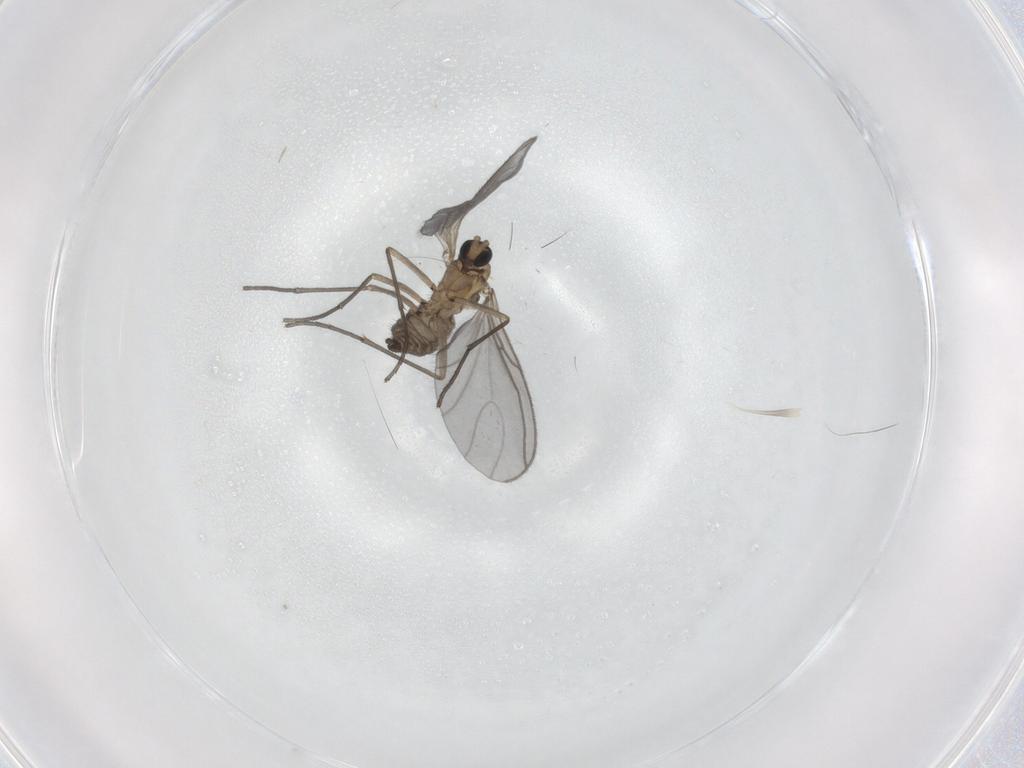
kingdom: Animalia
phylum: Arthropoda
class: Insecta
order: Diptera
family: Sciaridae
